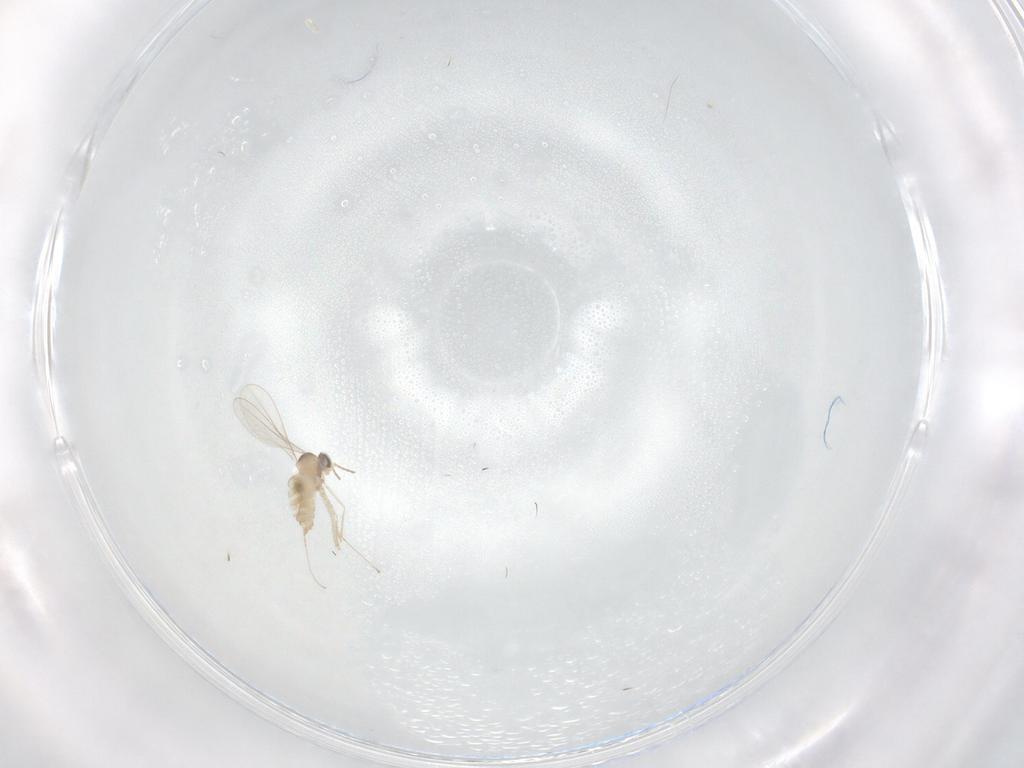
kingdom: Animalia
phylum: Arthropoda
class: Insecta
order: Diptera
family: Cecidomyiidae
